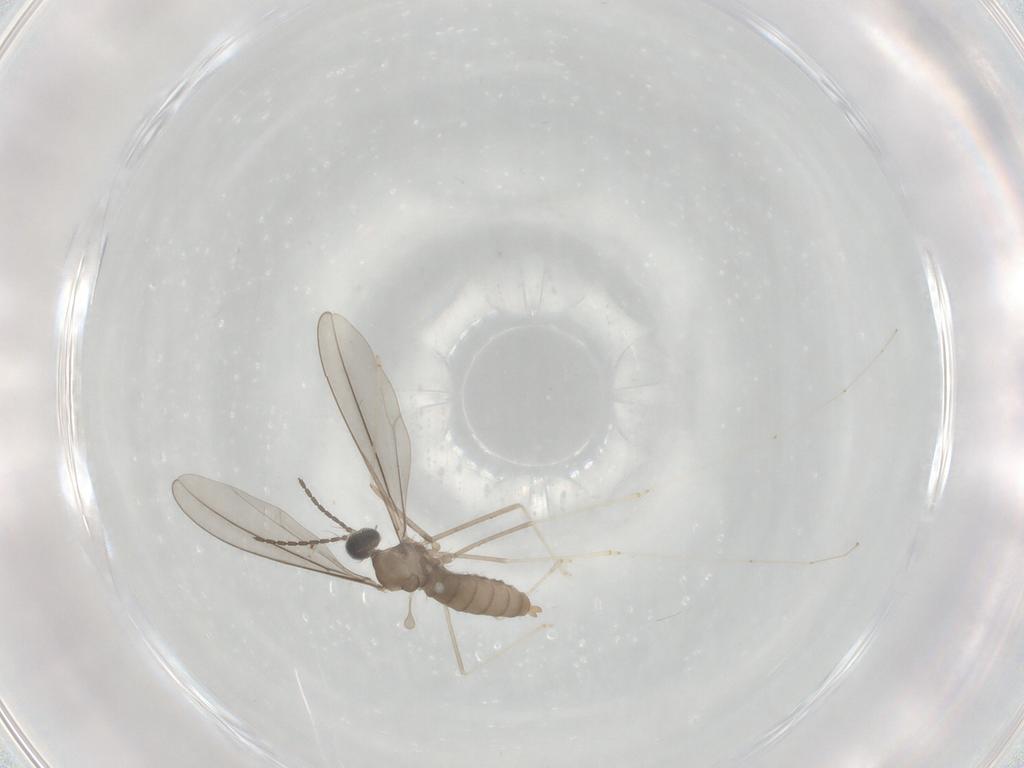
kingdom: Animalia
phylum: Arthropoda
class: Insecta
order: Diptera
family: Cecidomyiidae
